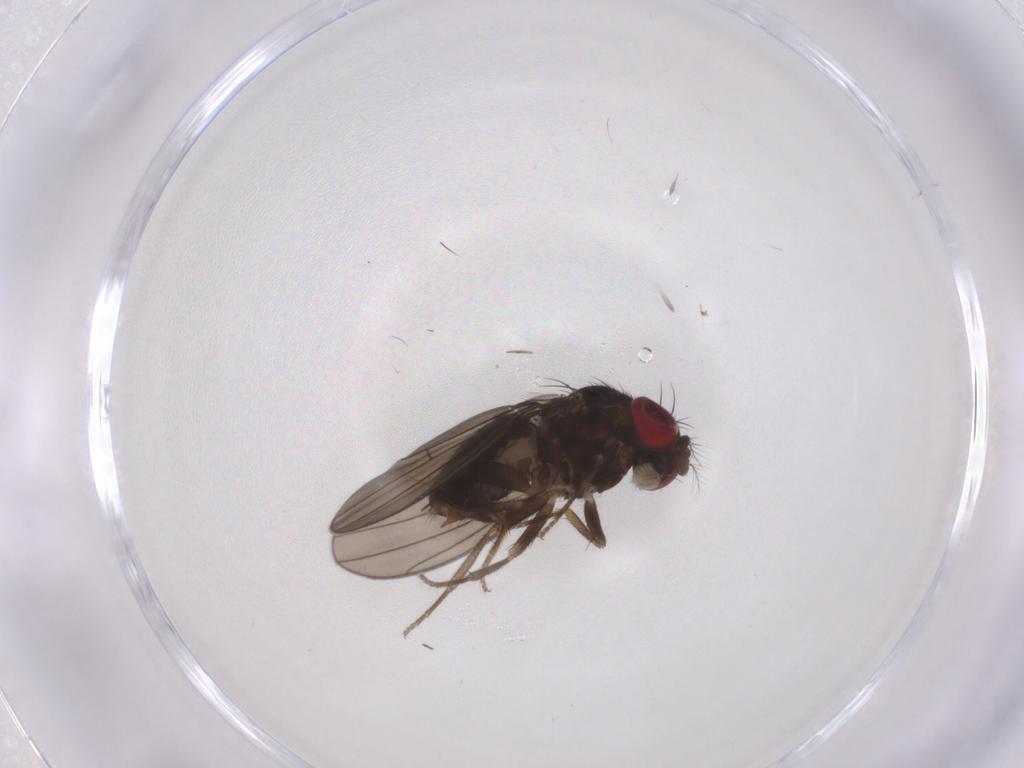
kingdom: Animalia
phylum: Arthropoda
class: Insecta
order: Diptera
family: Drosophilidae
